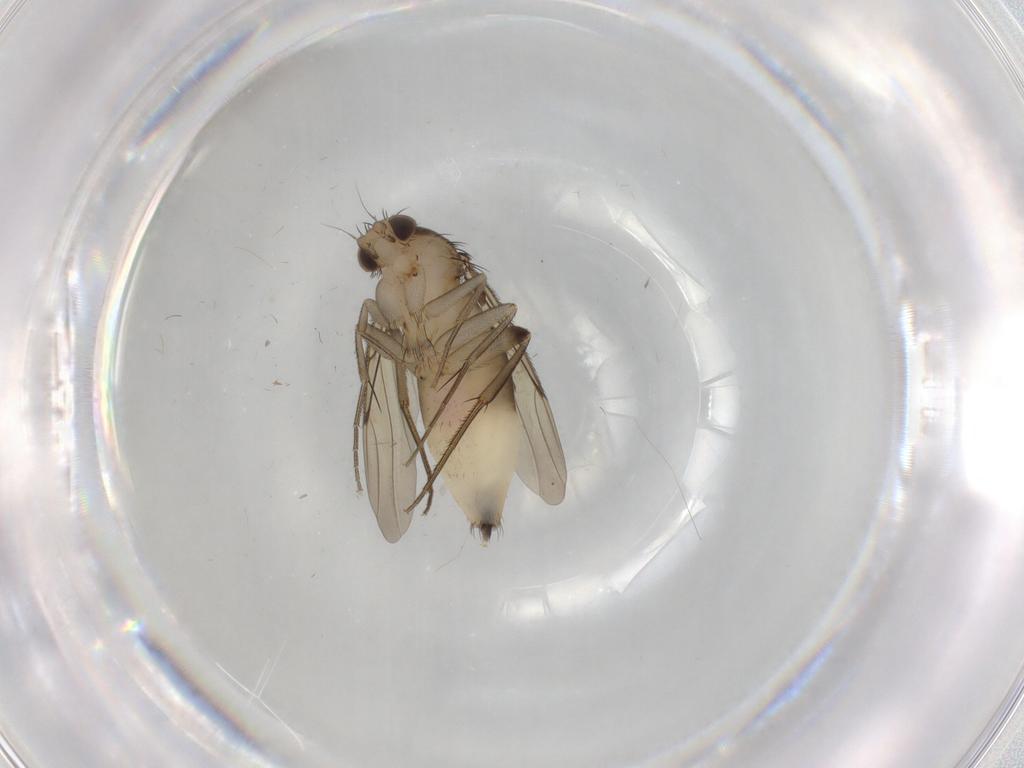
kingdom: Animalia
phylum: Arthropoda
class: Insecta
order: Diptera
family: Phoridae
